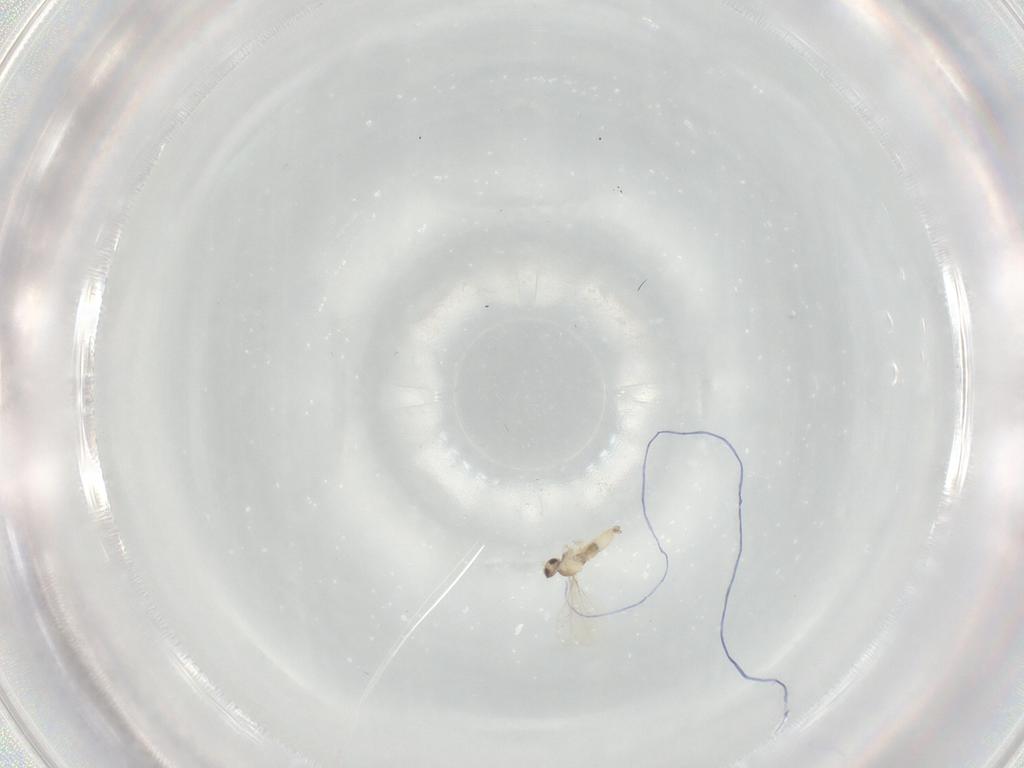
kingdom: Animalia
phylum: Arthropoda
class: Insecta
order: Diptera
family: Cecidomyiidae
